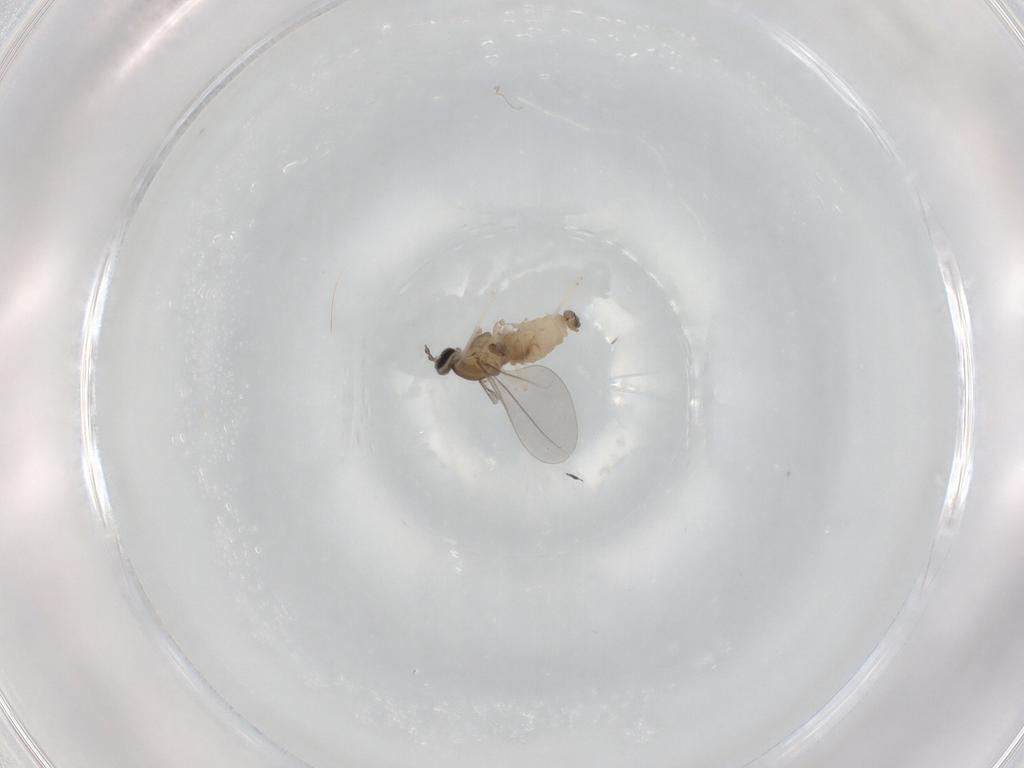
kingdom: Animalia
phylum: Arthropoda
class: Insecta
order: Diptera
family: Cecidomyiidae
